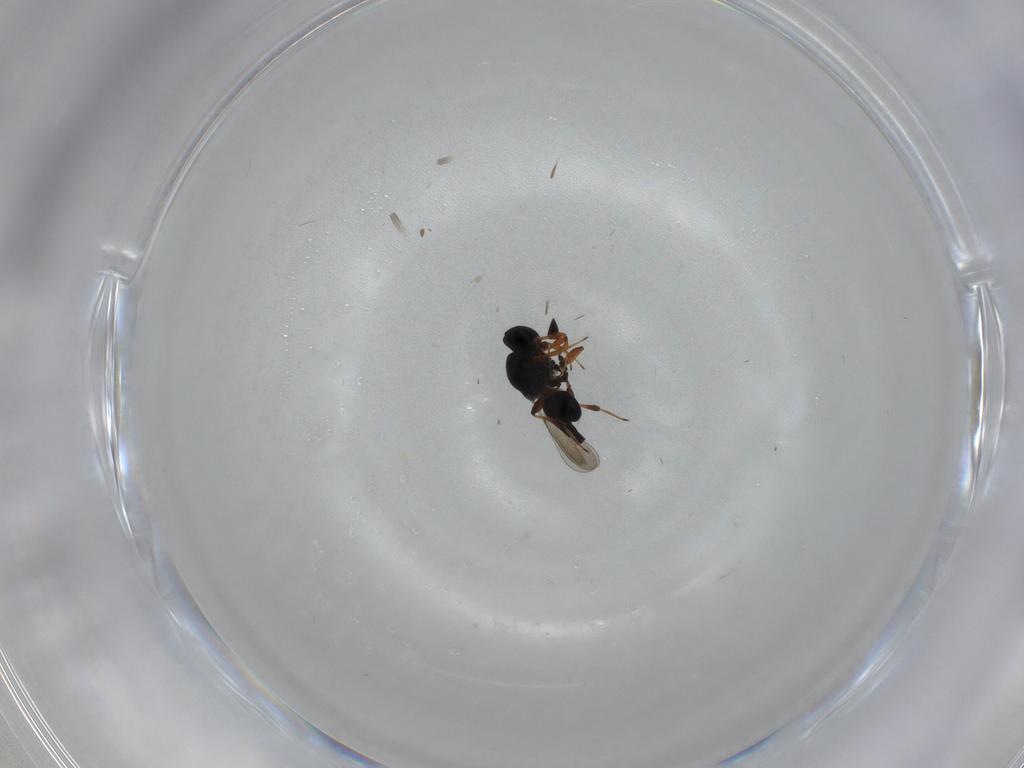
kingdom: Animalia
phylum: Arthropoda
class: Insecta
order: Hymenoptera
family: Platygastridae
